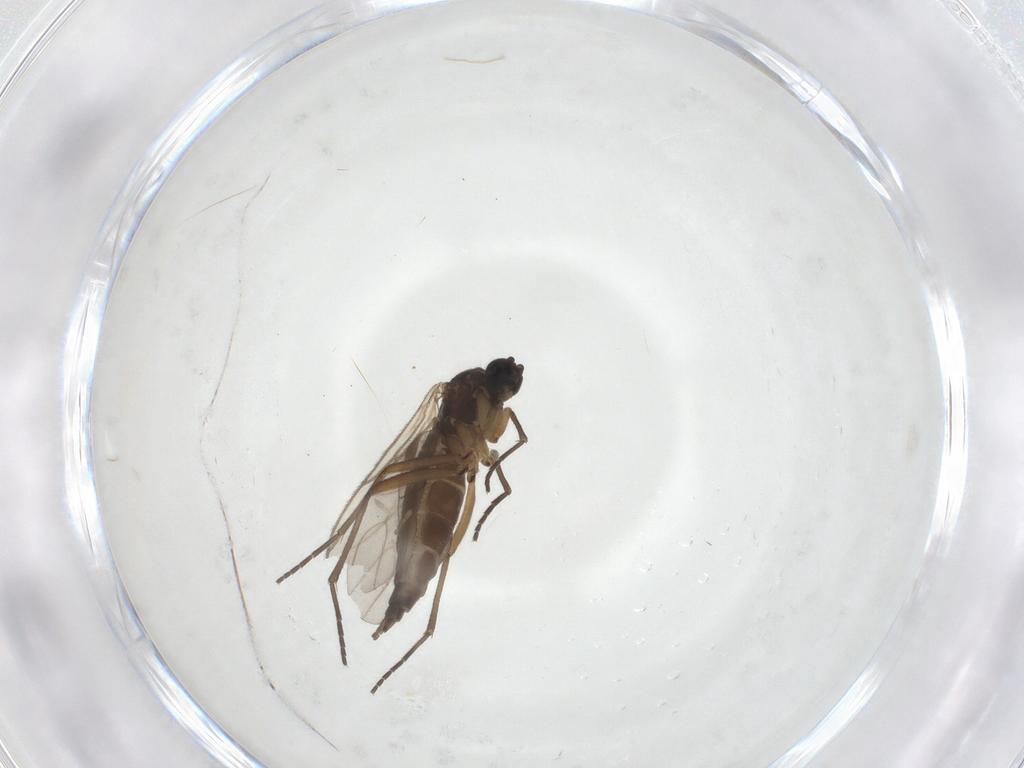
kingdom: Animalia
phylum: Arthropoda
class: Insecta
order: Diptera
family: Sciaridae
